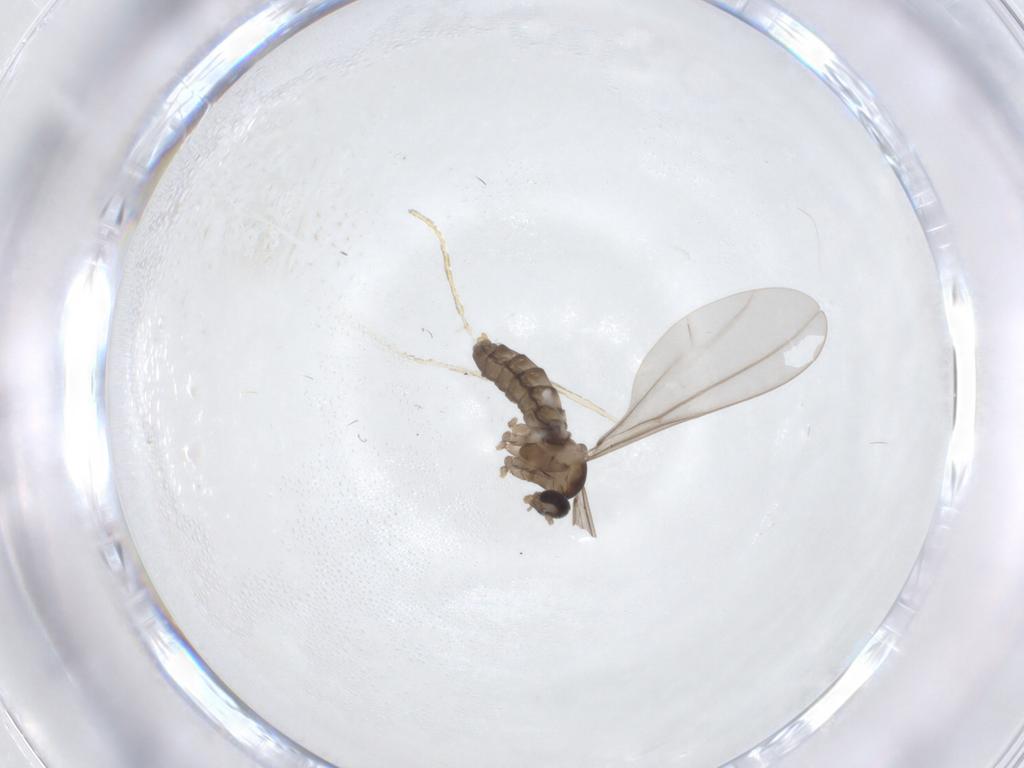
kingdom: Animalia
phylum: Arthropoda
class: Insecta
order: Diptera
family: Cecidomyiidae
